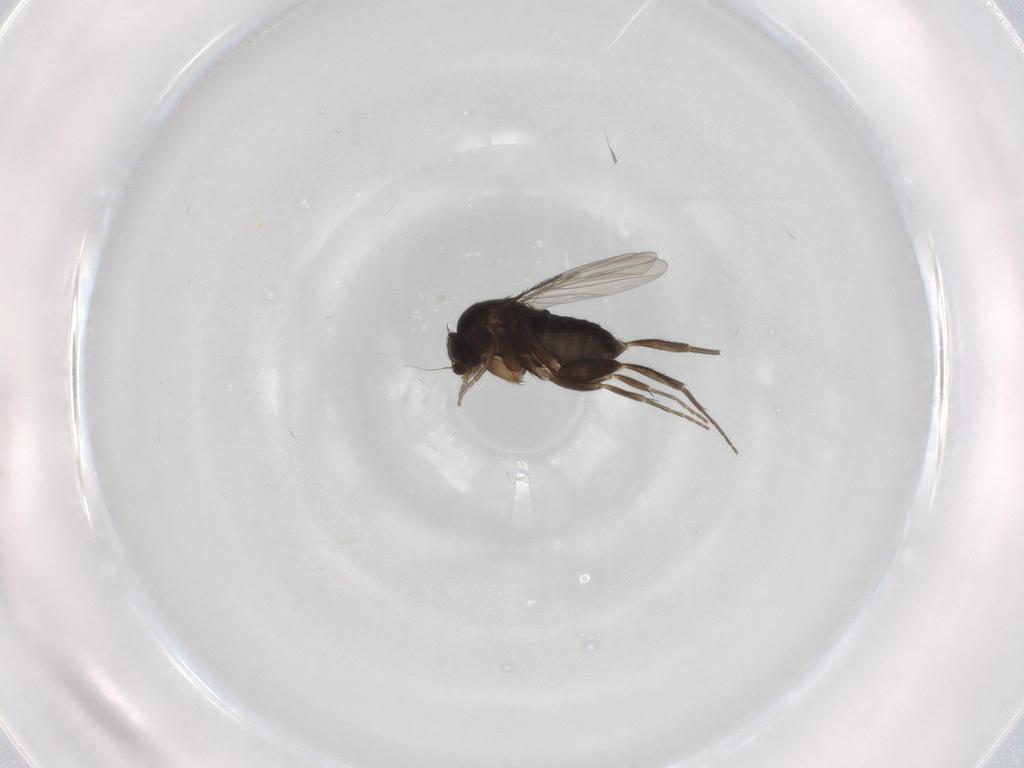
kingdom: Animalia
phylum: Arthropoda
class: Insecta
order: Diptera
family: Phoridae
